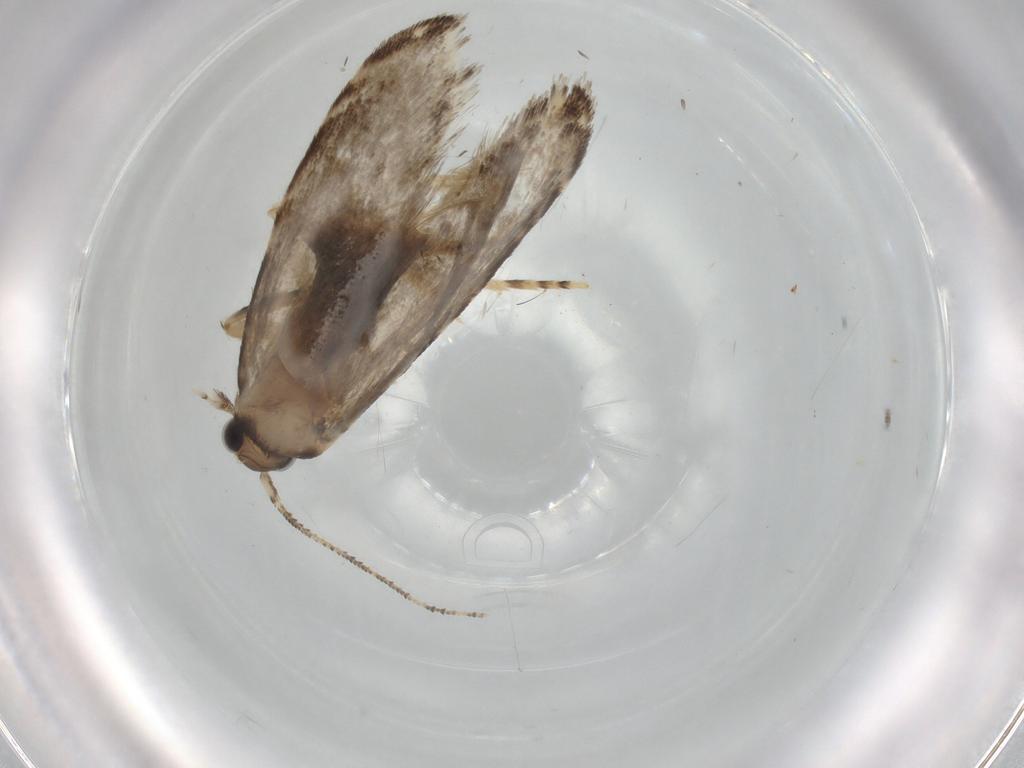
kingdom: Animalia
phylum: Arthropoda
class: Insecta
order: Lepidoptera
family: Tineidae
